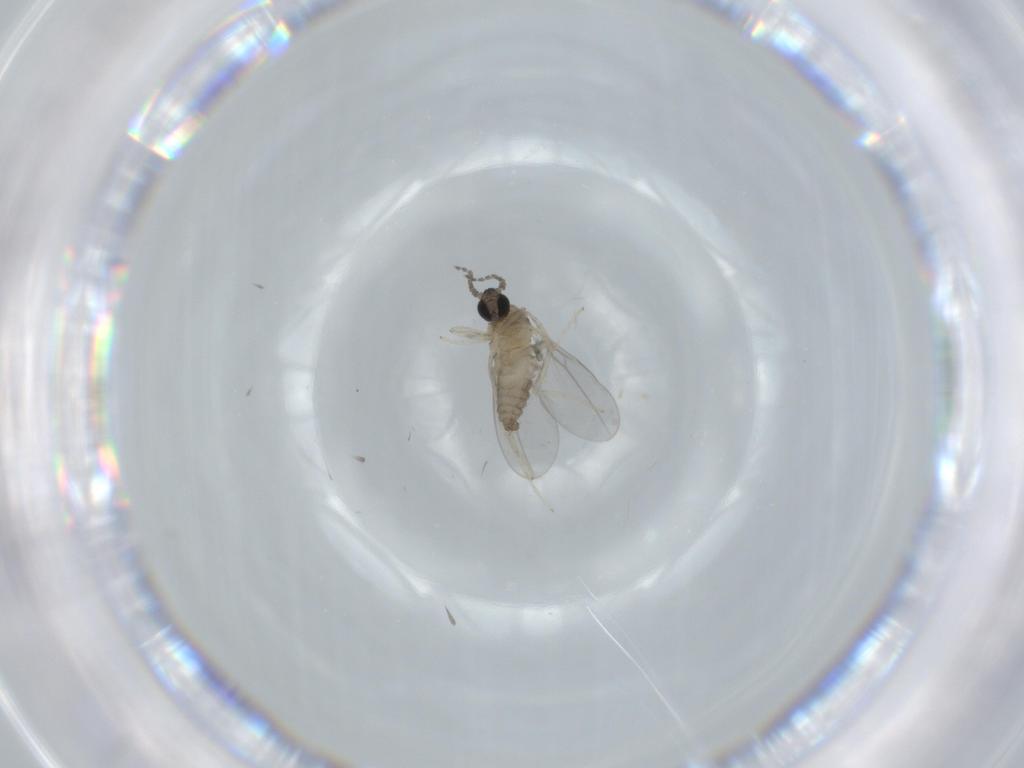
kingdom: Animalia
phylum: Arthropoda
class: Insecta
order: Diptera
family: Cecidomyiidae
